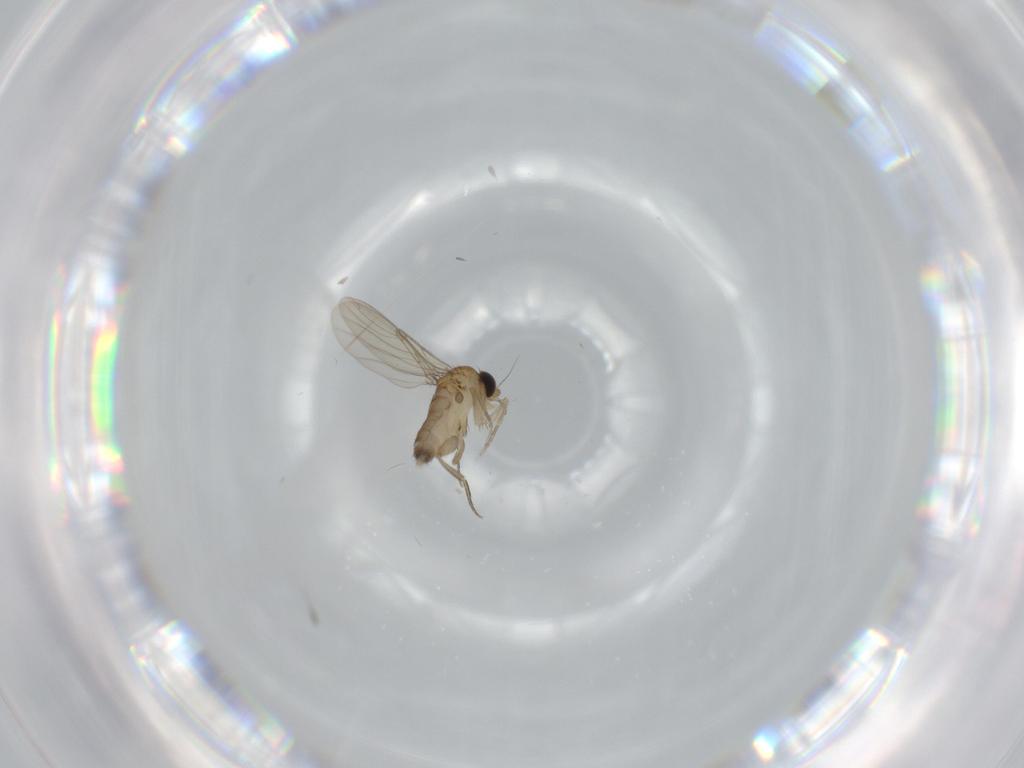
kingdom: Animalia
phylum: Arthropoda
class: Insecta
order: Diptera
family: Phoridae
